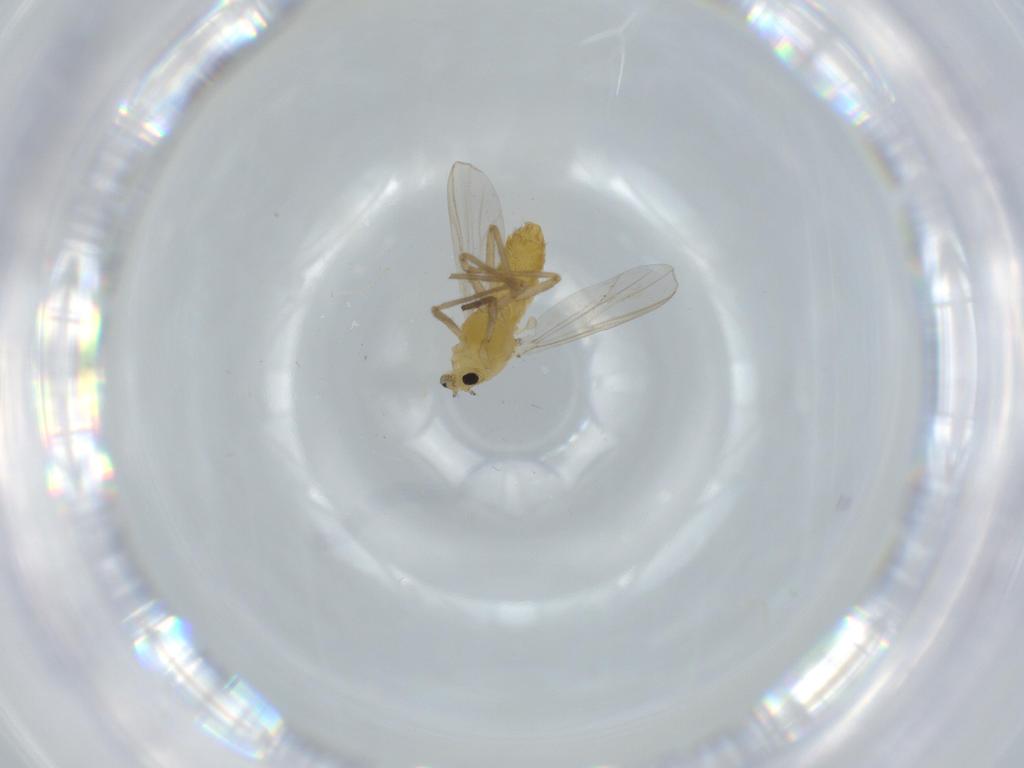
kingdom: Animalia
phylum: Arthropoda
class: Insecta
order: Diptera
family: Chironomidae
